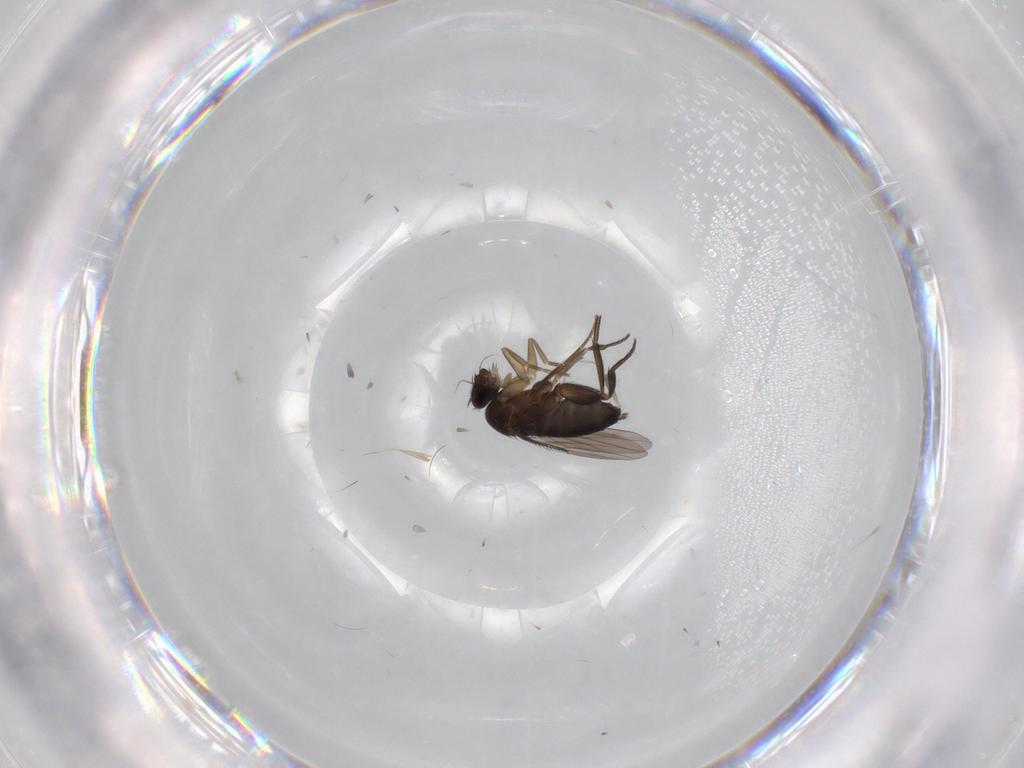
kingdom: Animalia
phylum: Arthropoda
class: Insecta
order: Diptera
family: Phoridae
